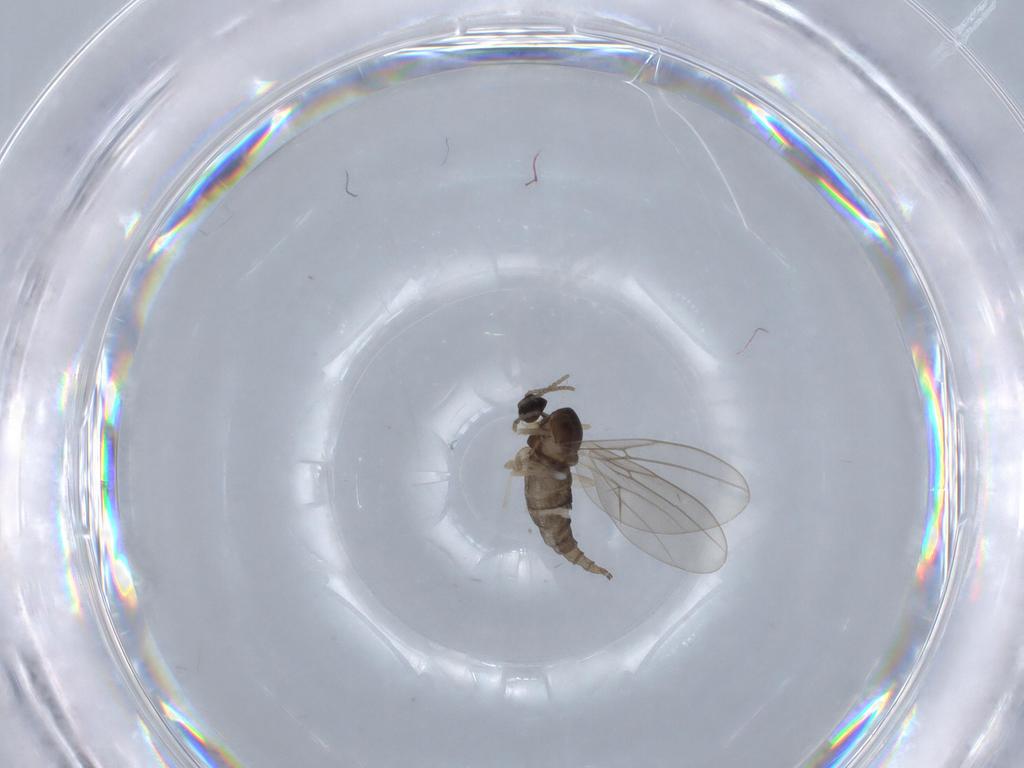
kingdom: Animalia
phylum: Arthropoda
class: Insecta
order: Diptera
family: Cecidomyiidae
